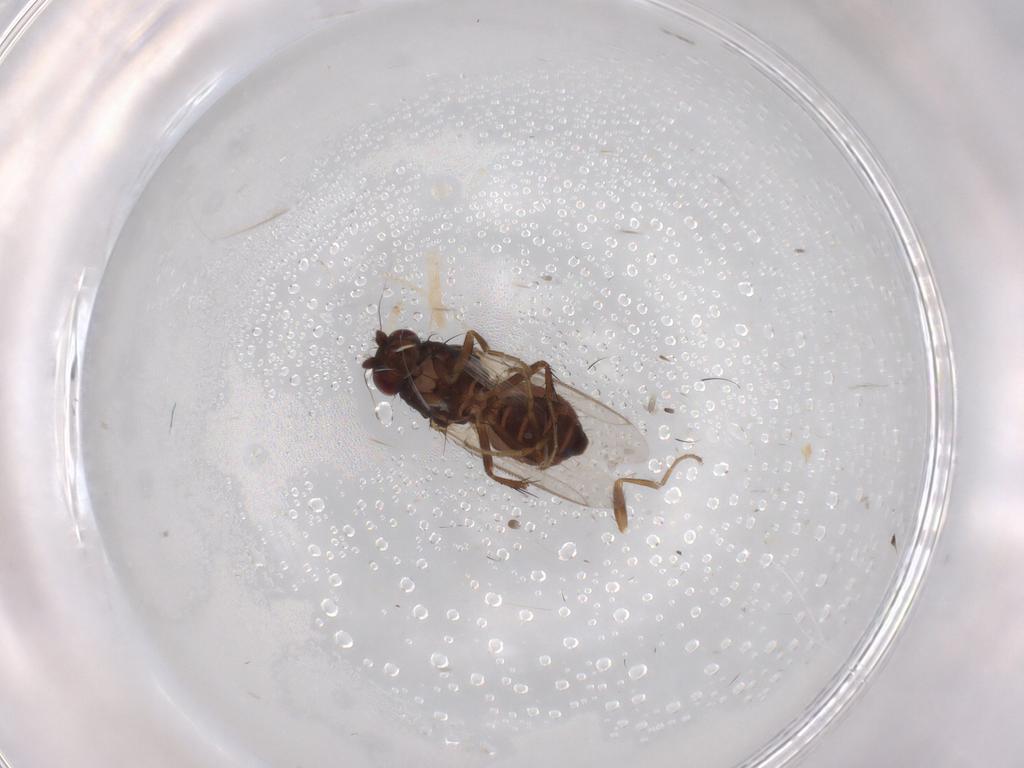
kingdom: Animalia
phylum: Arthropoda
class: Insecta
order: Diptera
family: Sphaeroceridae
